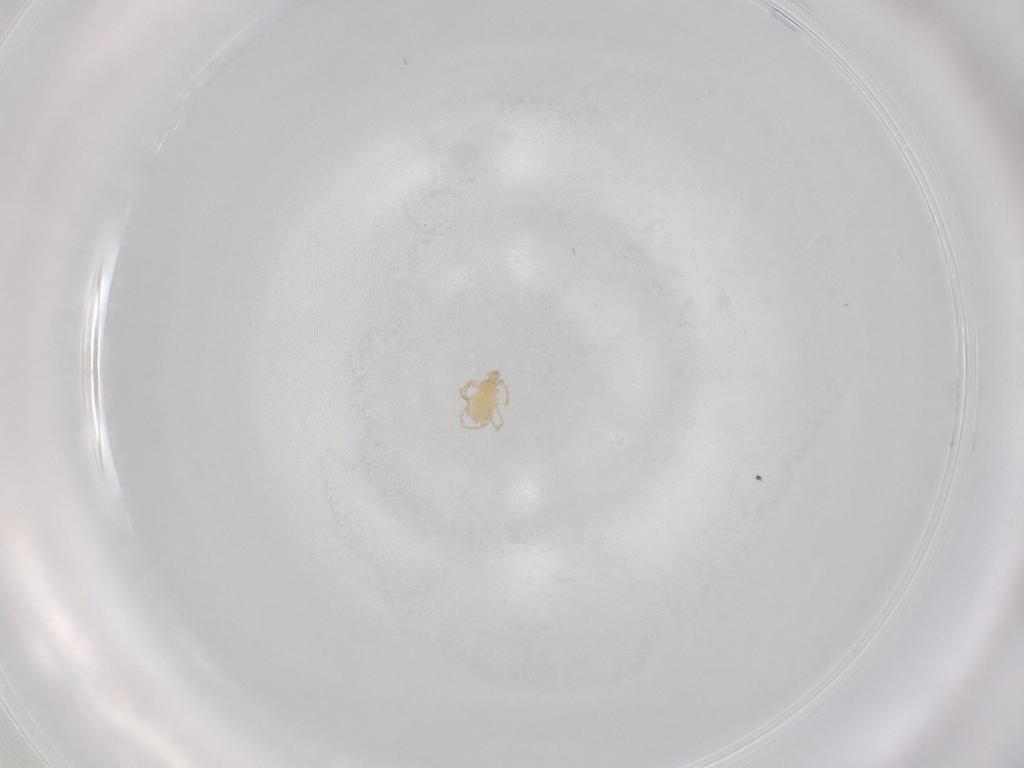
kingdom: Animalia
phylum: Arthropoda
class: Arachnida
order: Trombidiformes
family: Erythraeidae
